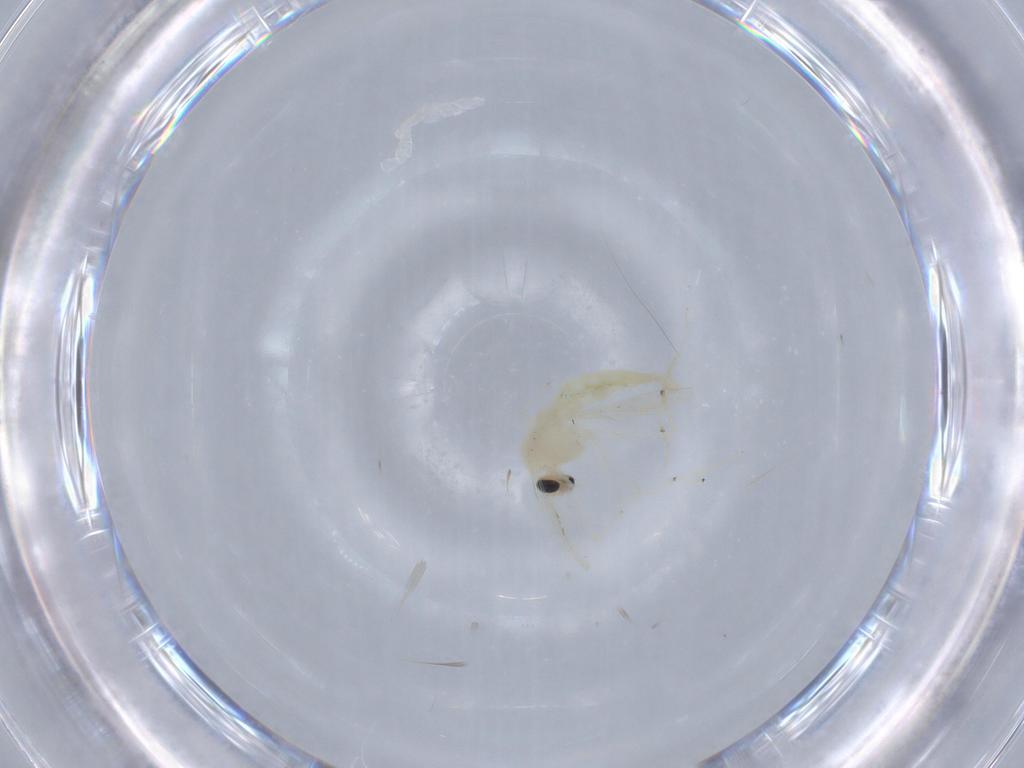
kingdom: Animalia
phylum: Arthropoda
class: Insecta
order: Diptera
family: Chironomidae
